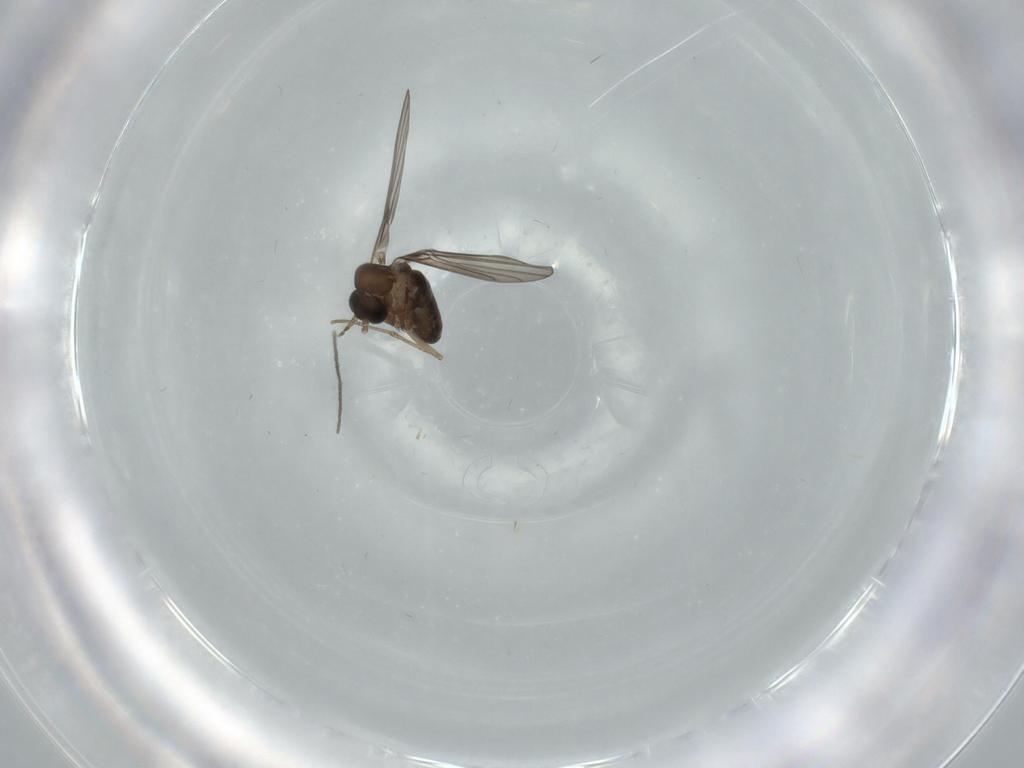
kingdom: Animalia
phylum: Arthropoda
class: Insecta
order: Diptera
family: Psychodidae
